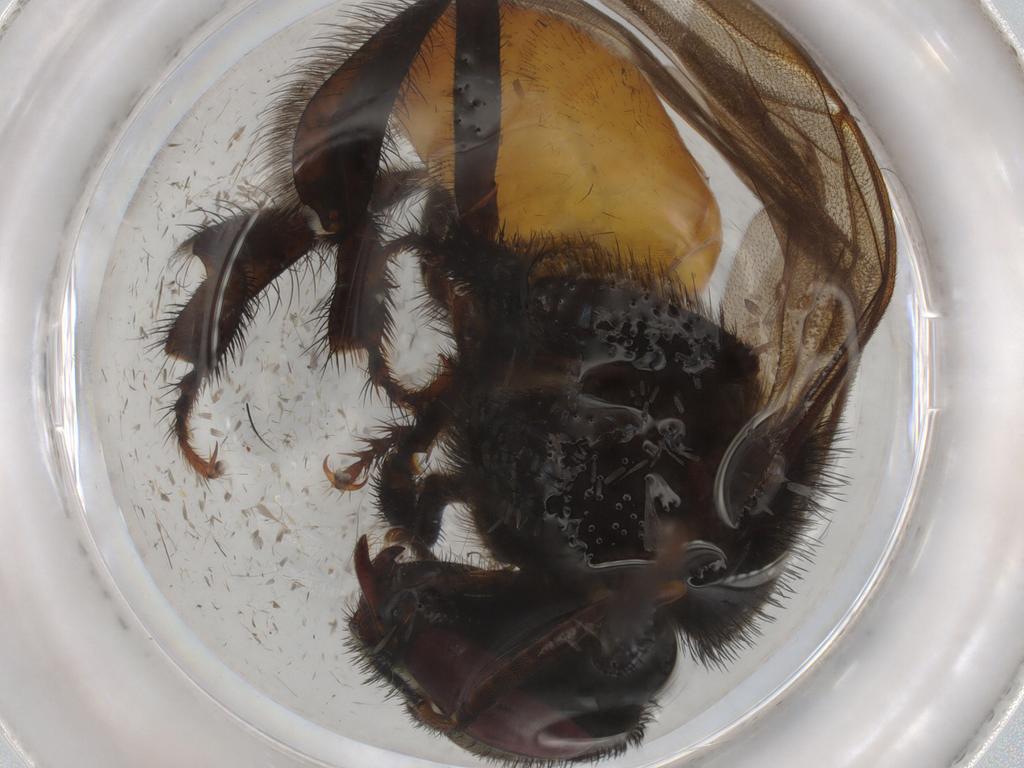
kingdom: Animalia
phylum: Arthropoda
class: Insecta
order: Hymenoptera
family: Apidae
